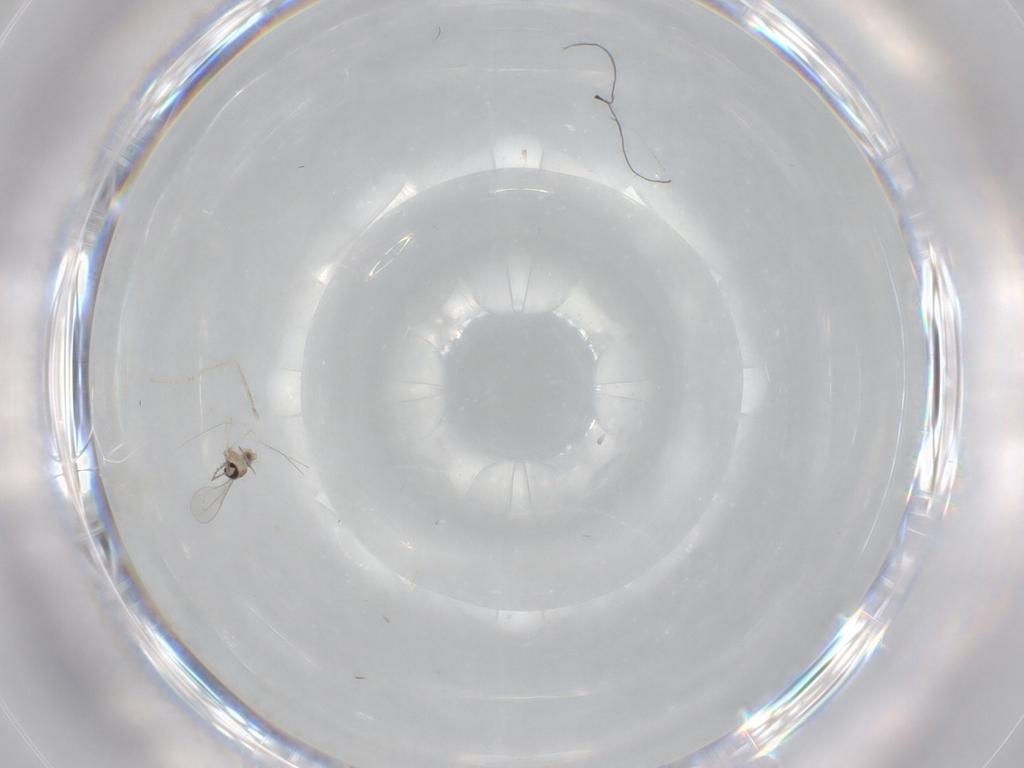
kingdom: Animalia
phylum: Arthropoda
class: Insecta
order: Diptera
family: Cecidomyiidae
